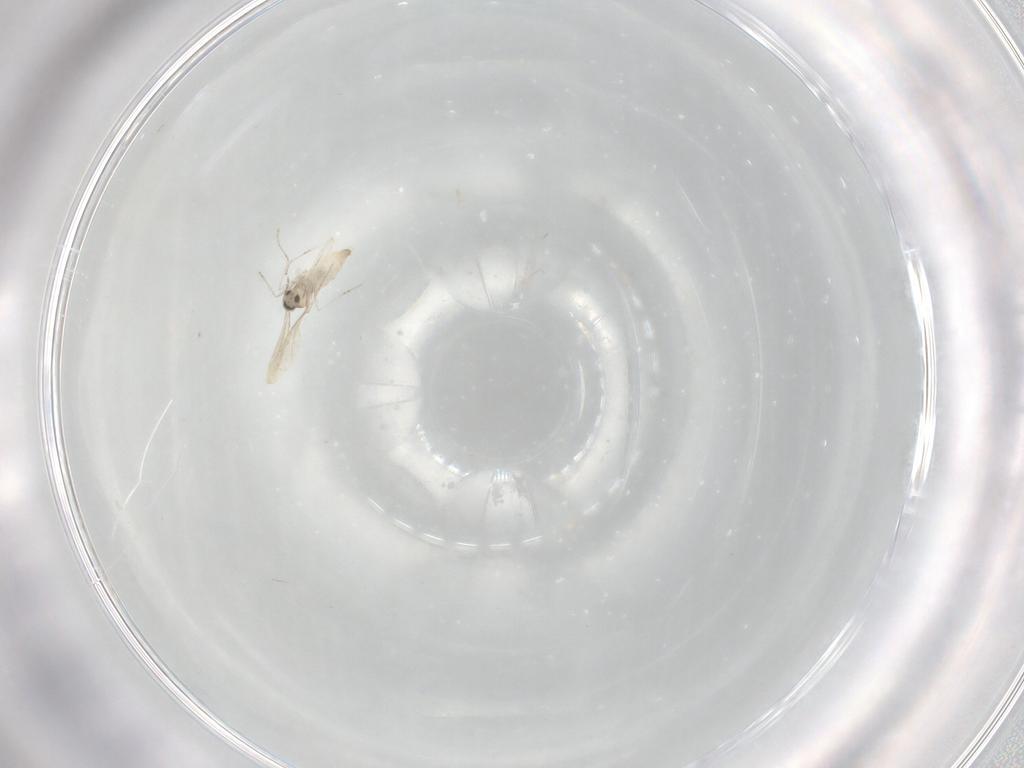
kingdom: Animalia
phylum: Arthropoda
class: Insecta
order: Diptera
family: Cecidomyiidae
